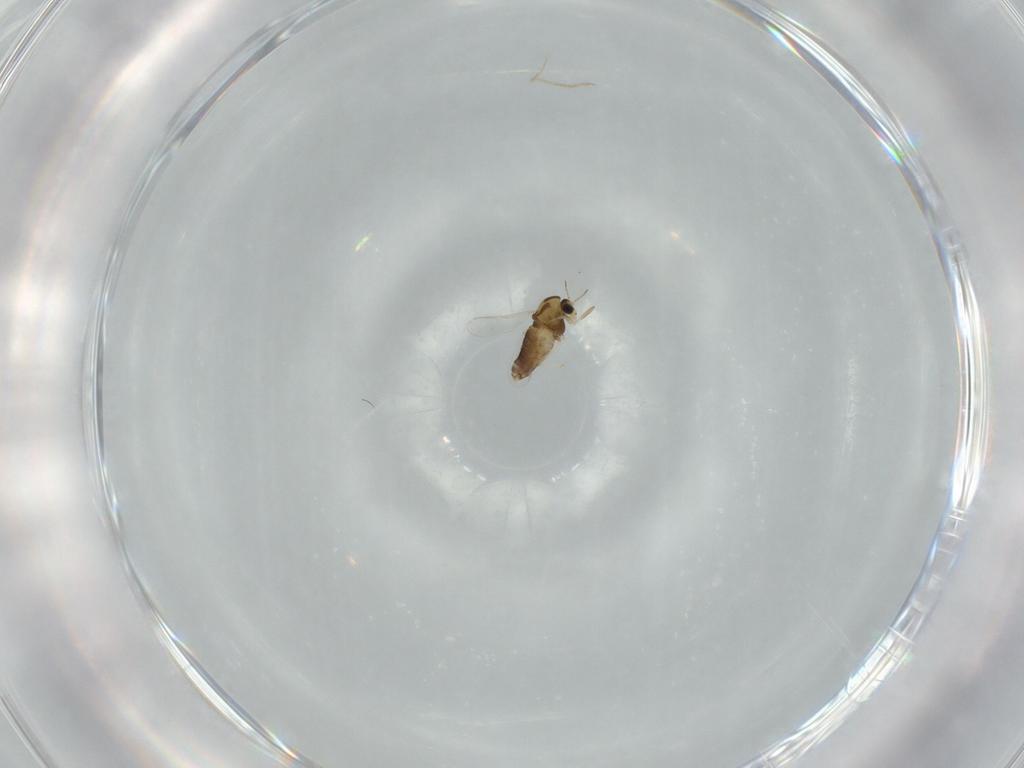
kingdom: Animalia
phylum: Arthropoda
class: Insecta
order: Diptera
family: Chironomidae
